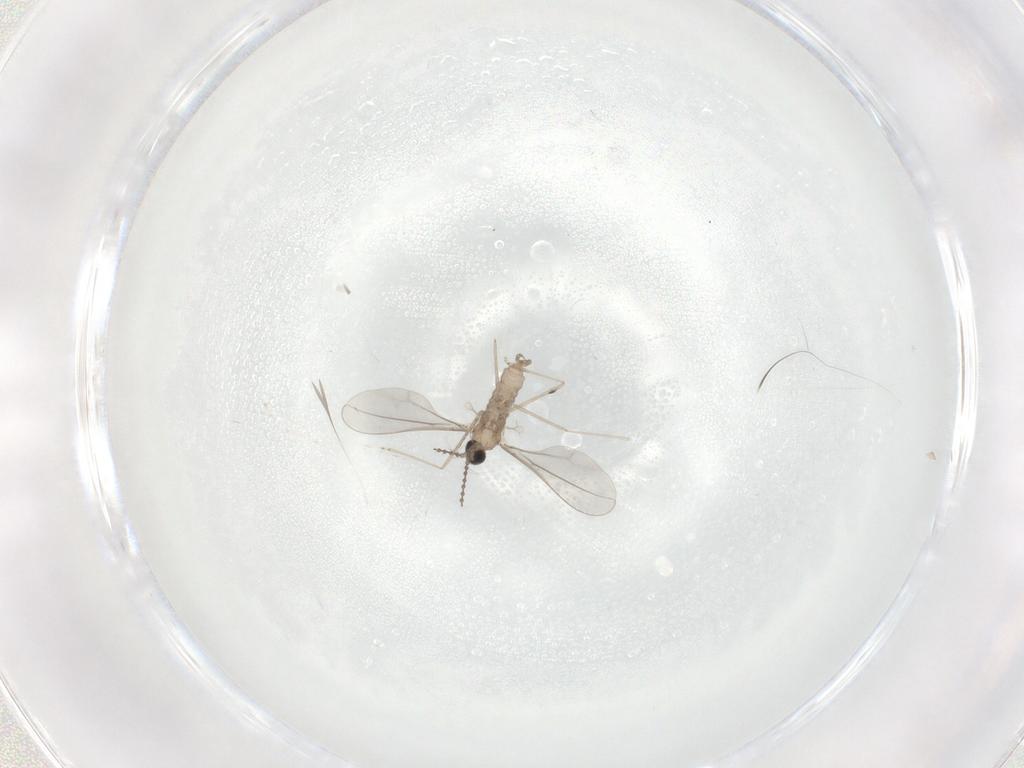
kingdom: Animalia
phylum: Arthropoda
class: Insecta
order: Diptera
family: Cecidomyiidae
